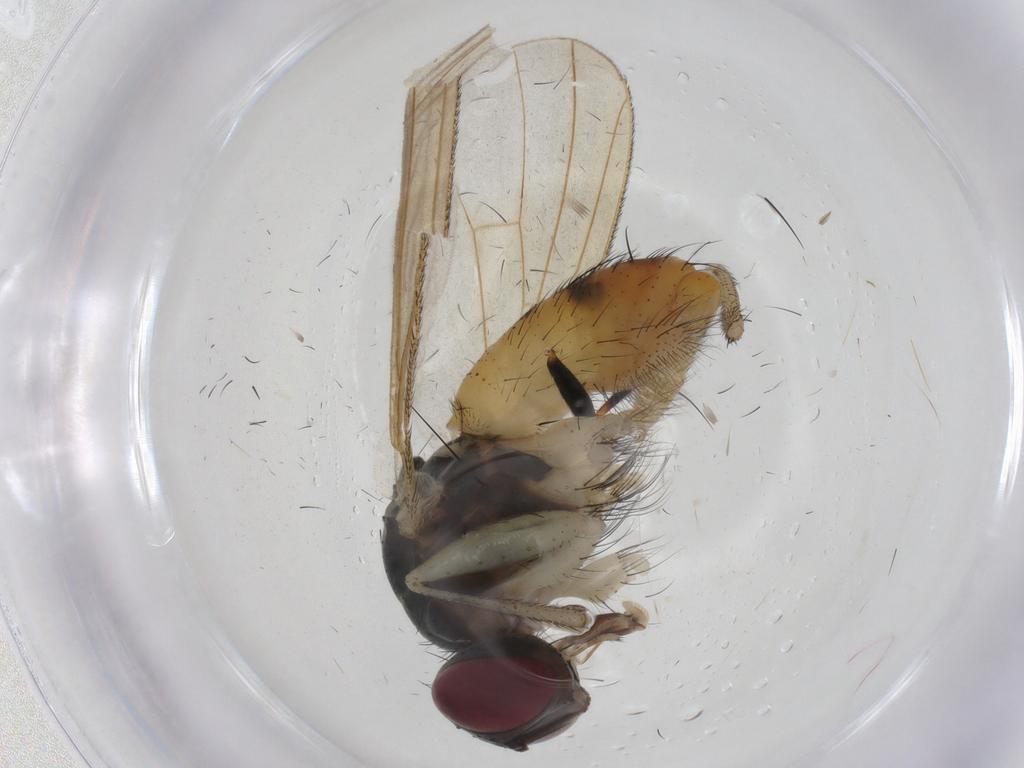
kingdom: Animalia
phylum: Arthropoda
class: Insecta
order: Diptera
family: Muscidae
